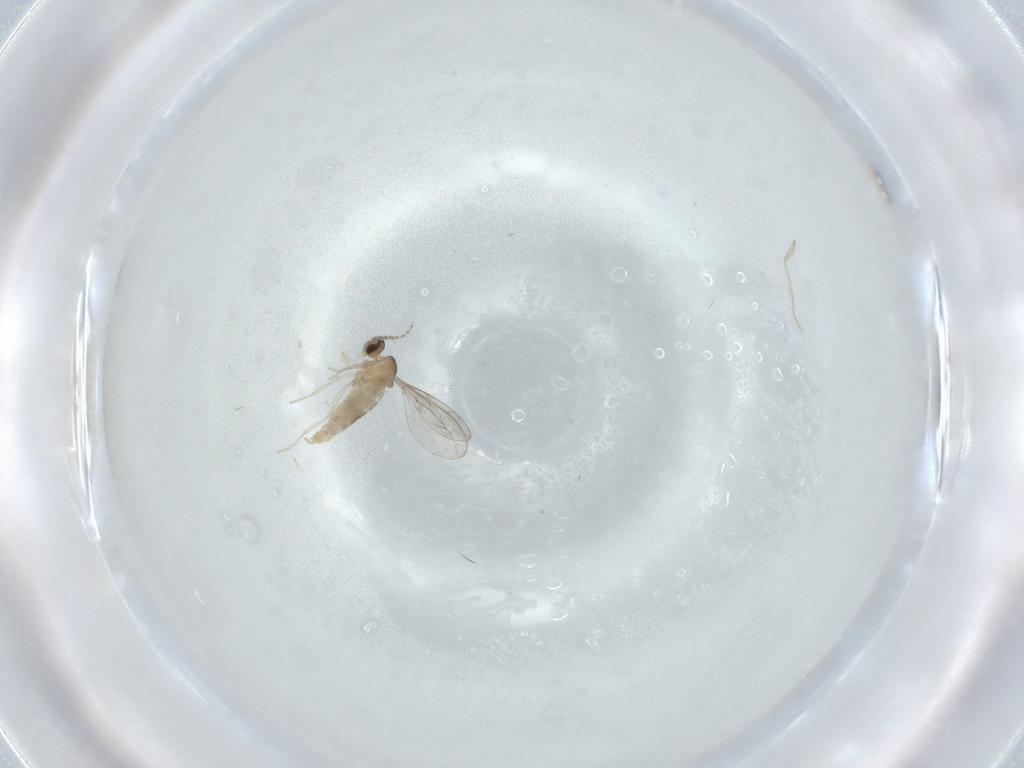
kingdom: Animalia
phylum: Arthropoda
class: Insecta
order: Diptera
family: Cecidomyiidae
